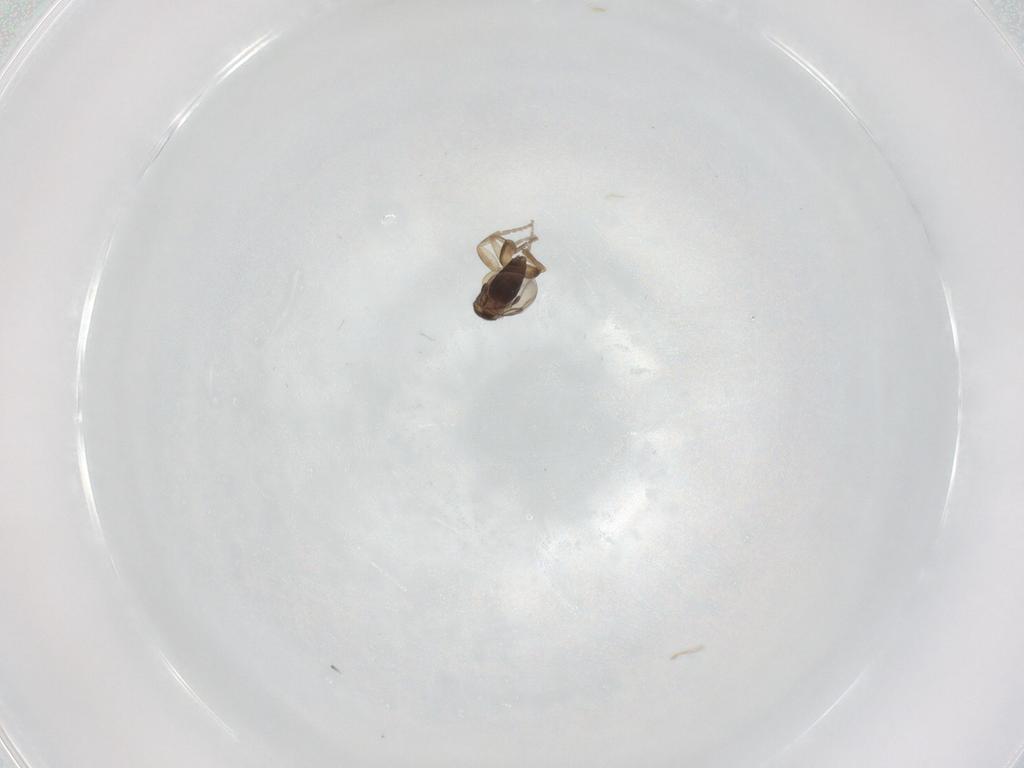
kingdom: Animalia
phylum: Arthropoda
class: Insecta
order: Diptera
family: Phoridae
